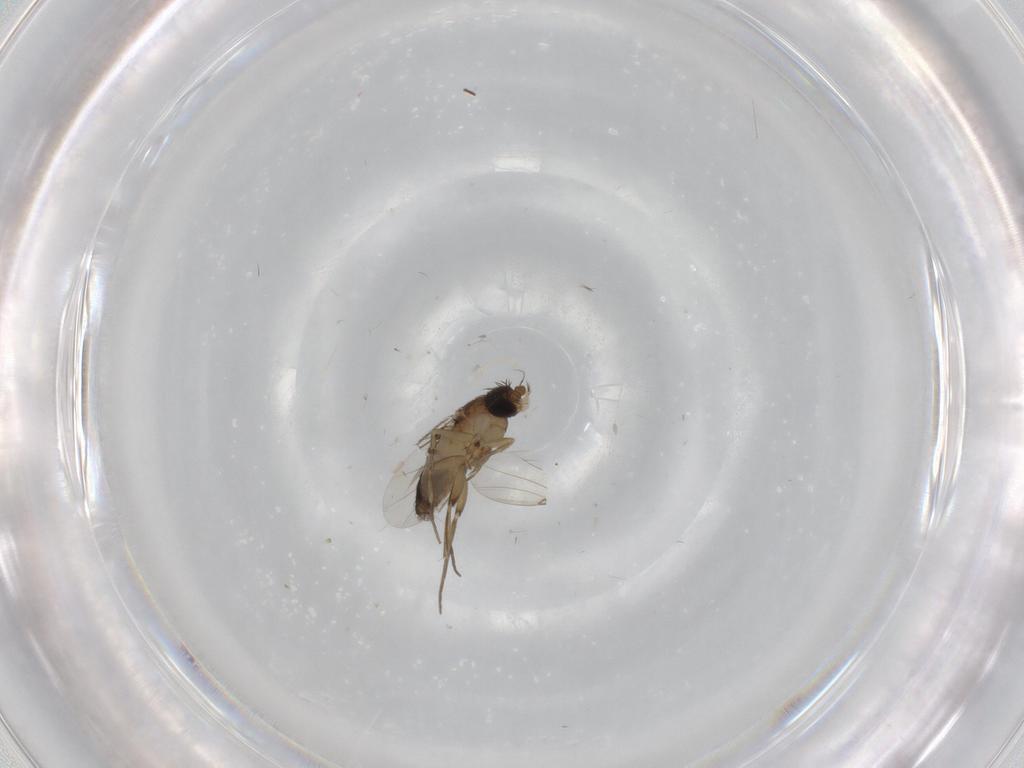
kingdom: Animalia
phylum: Arthropoda
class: Insecta
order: Diptera
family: Phoridae
